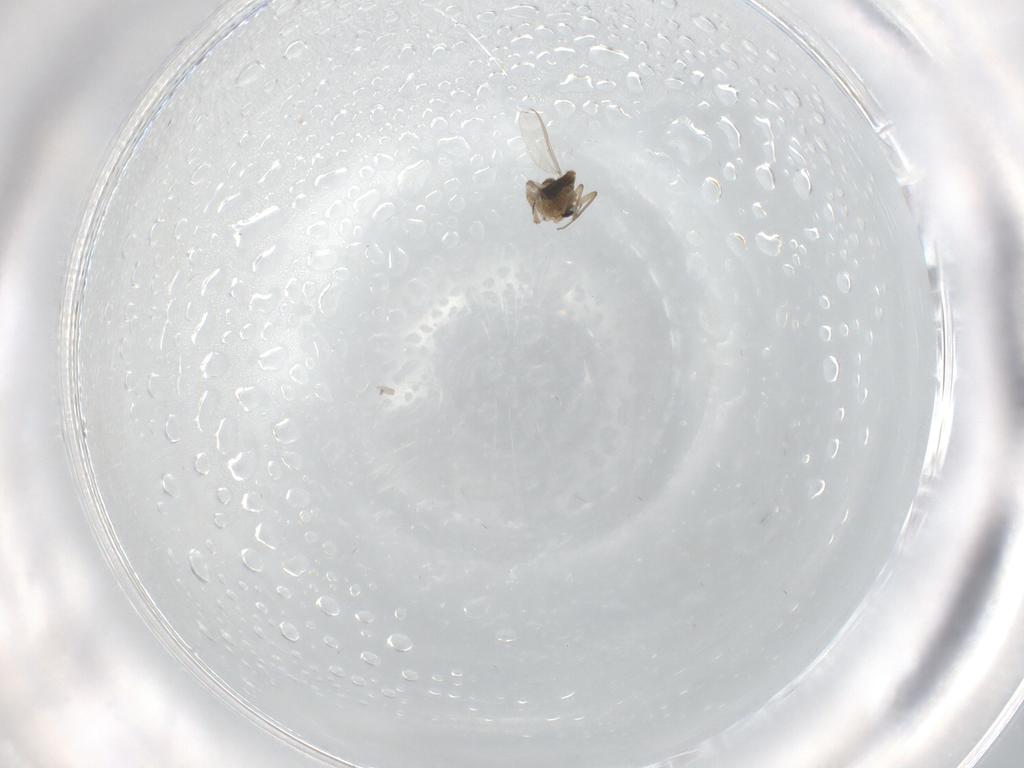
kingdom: Animalia
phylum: Arthropoda
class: Insecta
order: Diptera
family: Chironomidae
